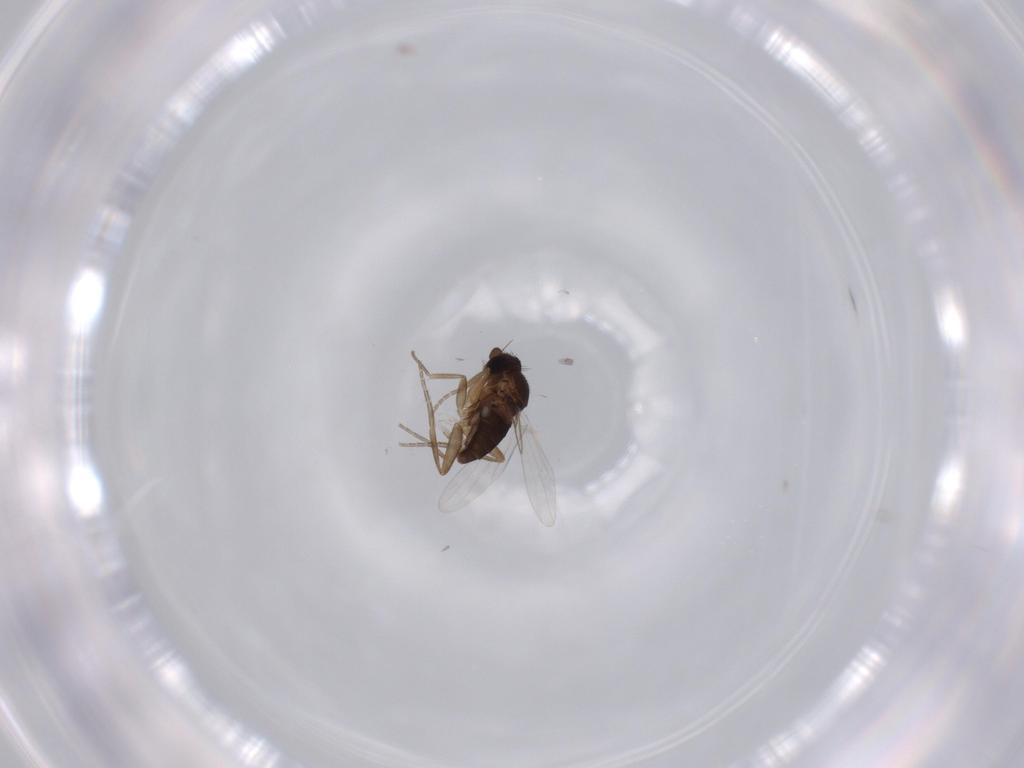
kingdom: Animalia
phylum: Arthropoda
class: Insecta
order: Diptera
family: Phoridae
